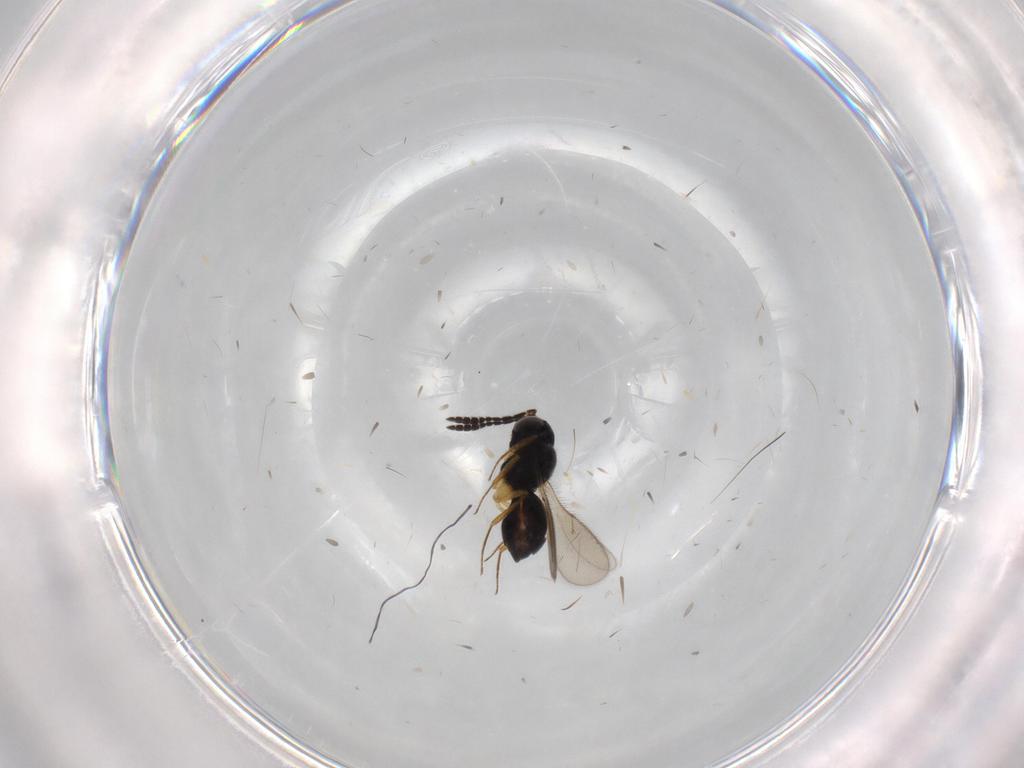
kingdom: Animalia
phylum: Arthropoda
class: Insecta
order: Hymenoptera
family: Scelionidae
